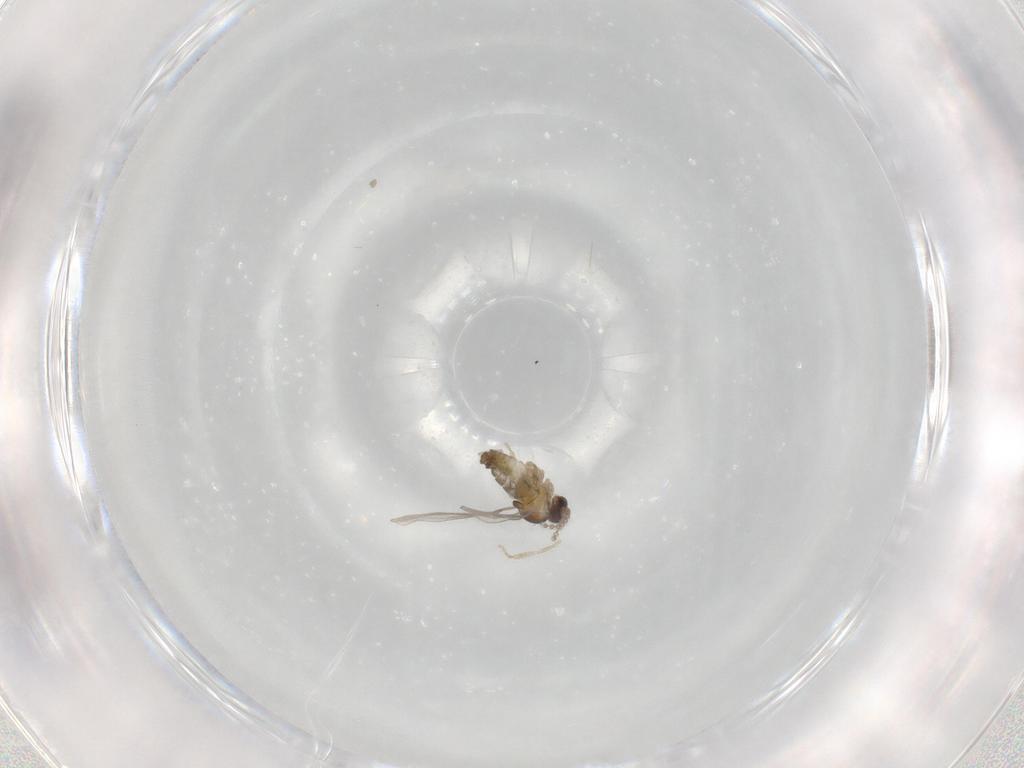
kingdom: Animalia
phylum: Arthropoda
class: Insecta
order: Diptera
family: Cecidomyiidae
